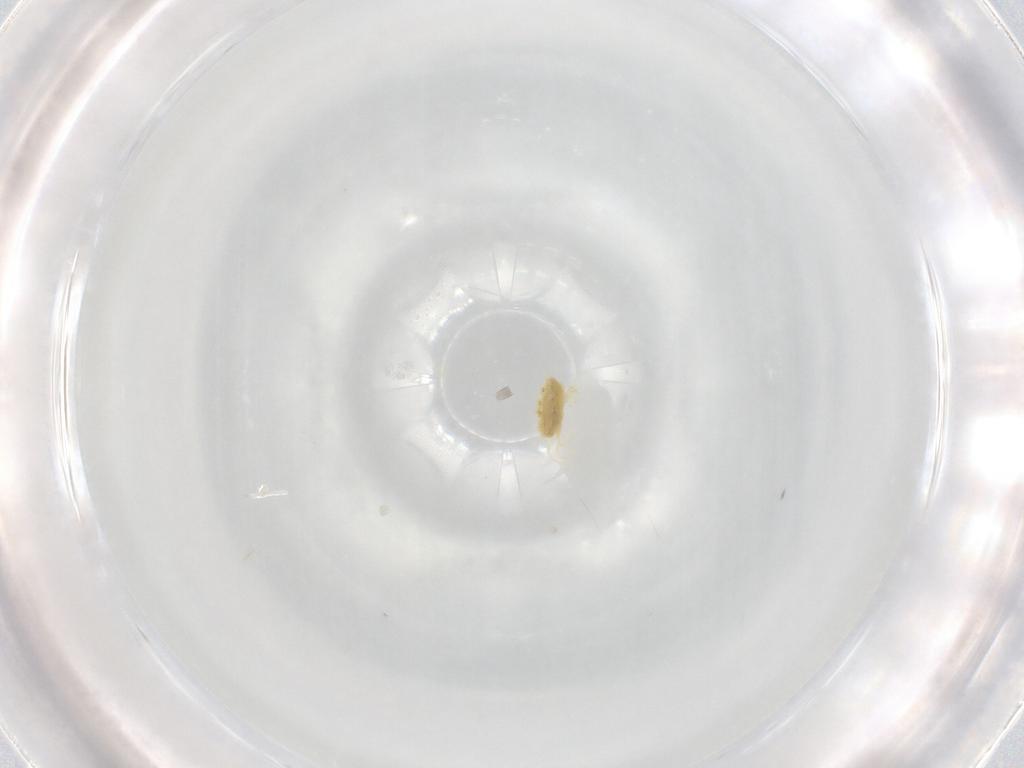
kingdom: Animalia
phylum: Arthropoda
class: Arachnida
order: Trombidiformes
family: Tetranychidae
